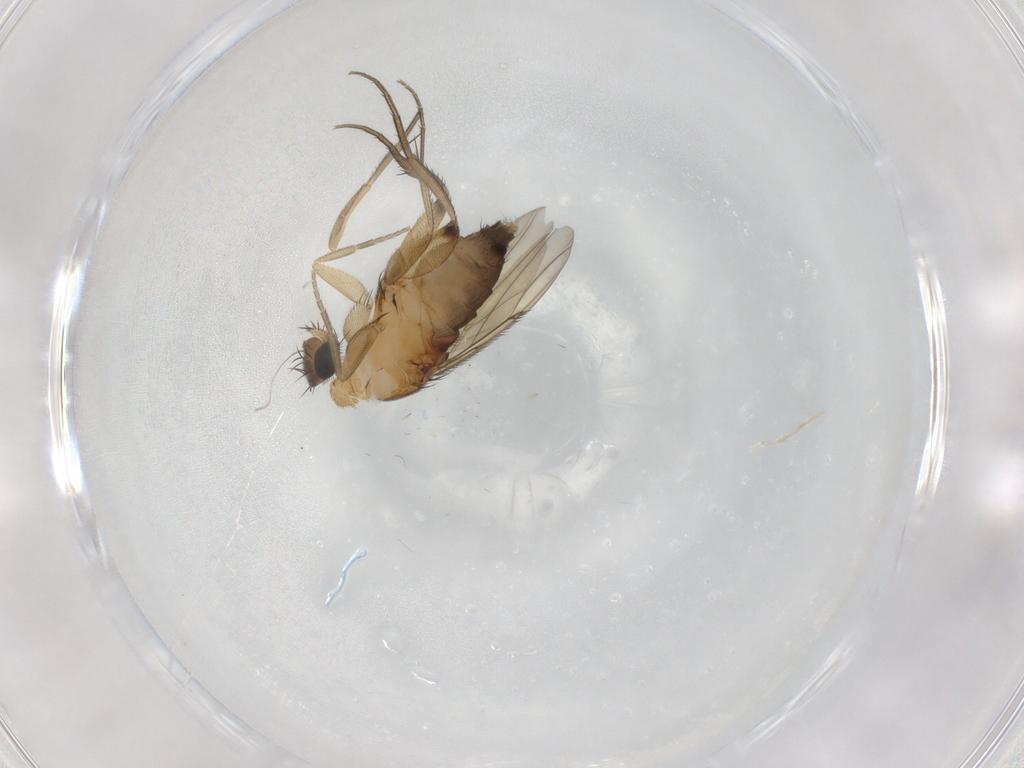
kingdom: Animalia
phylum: Arthropoda
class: Insecta
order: Diptera
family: Phoridae
